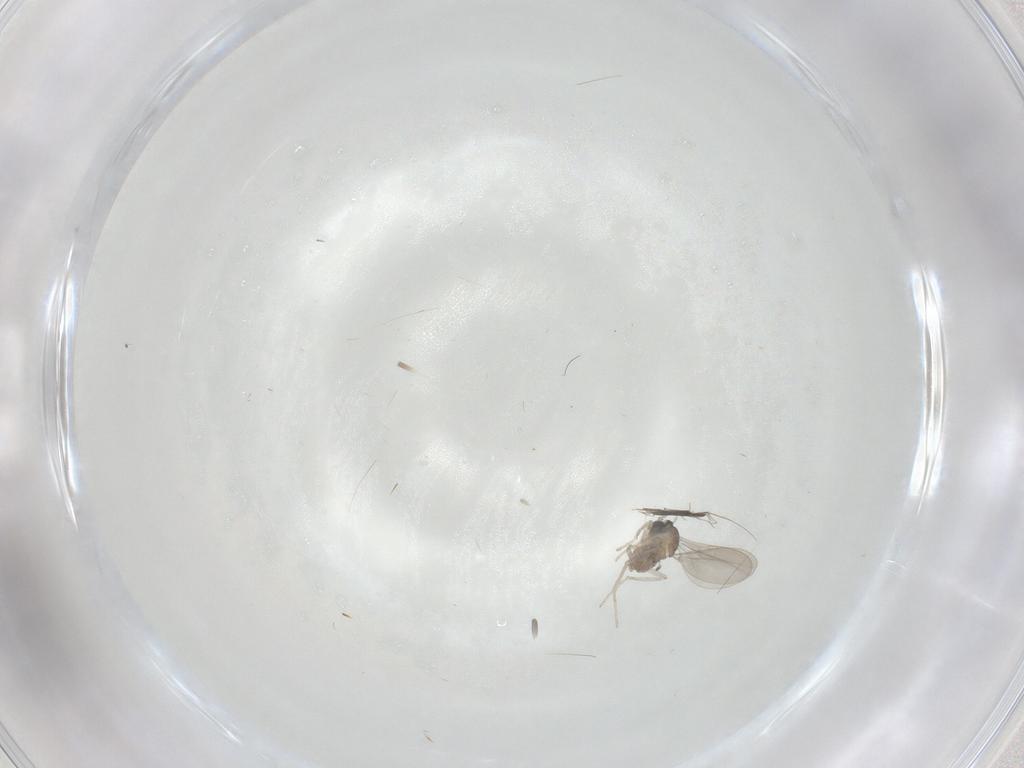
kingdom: Animalia
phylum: Arthropoda
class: Insecta
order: Diptera
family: Cecidomyiidae
